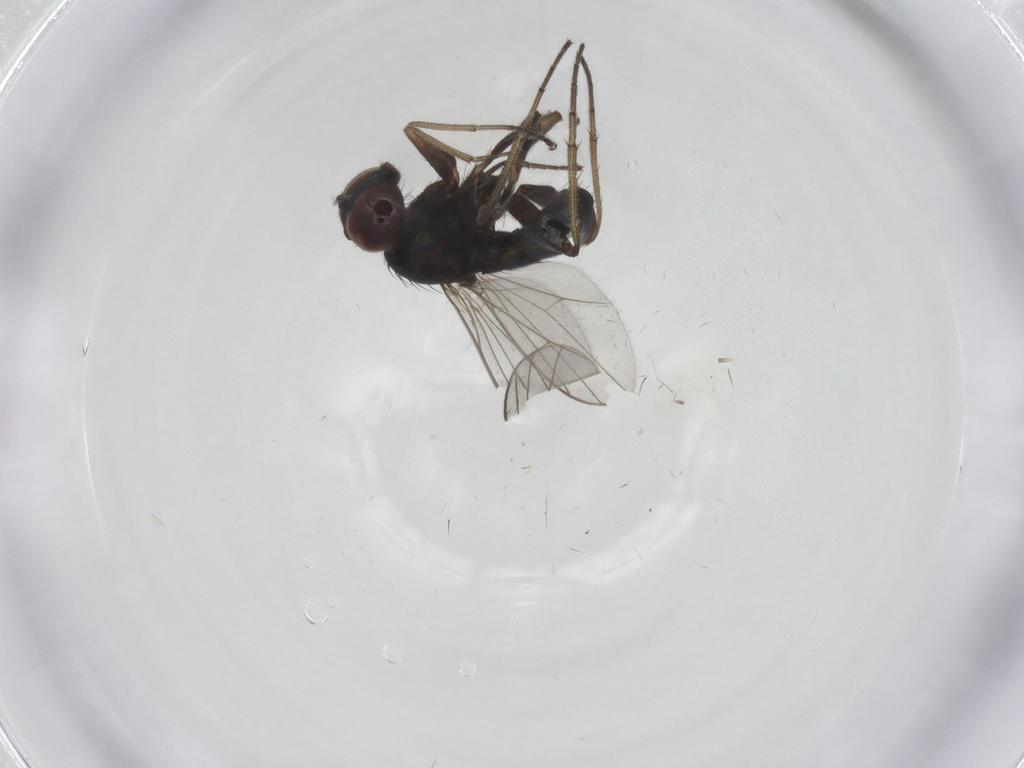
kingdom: Animalia
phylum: Arthropoda
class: Insecta
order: Diptera
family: Dolichopodidae
